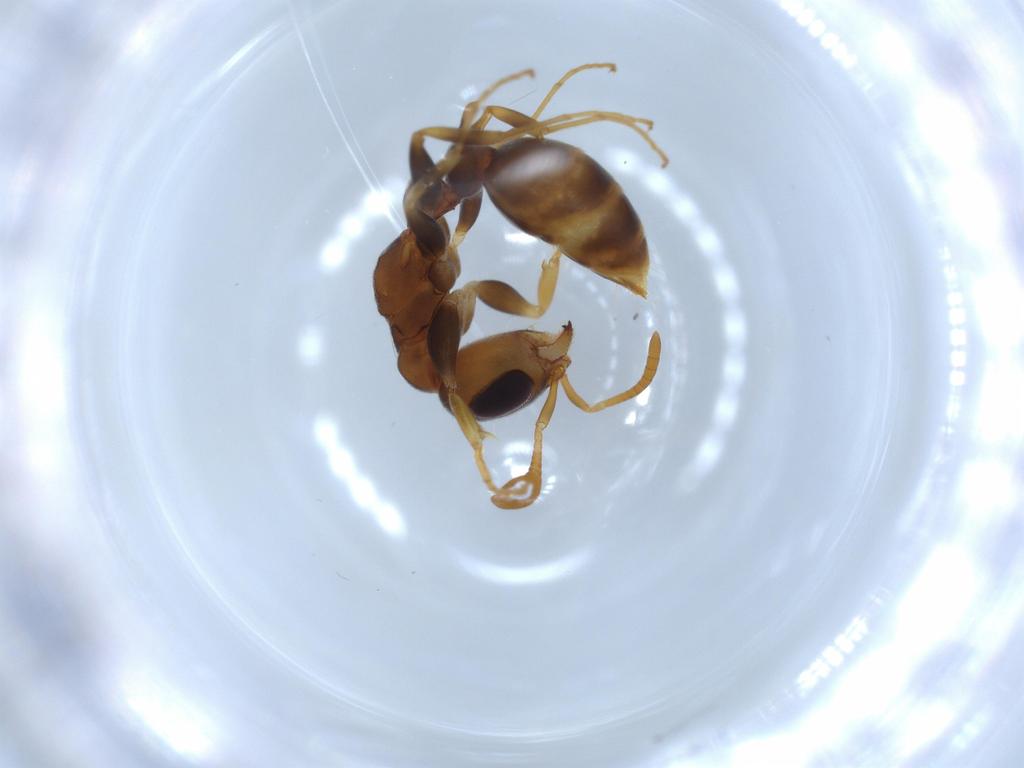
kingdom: Animalia
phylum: Arthropoda
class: Insecta
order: Hymenoptera
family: Formicidae
